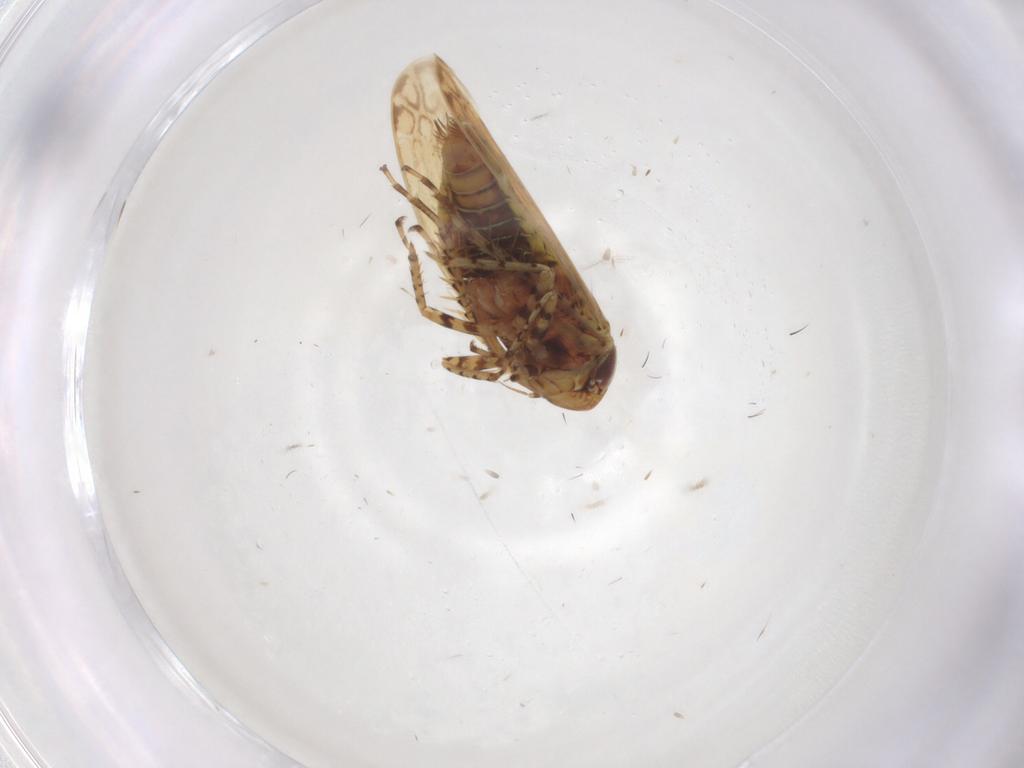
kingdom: Animalia
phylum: Arthropoda
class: Insecta
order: Hemiptera
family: Cicadellidae
